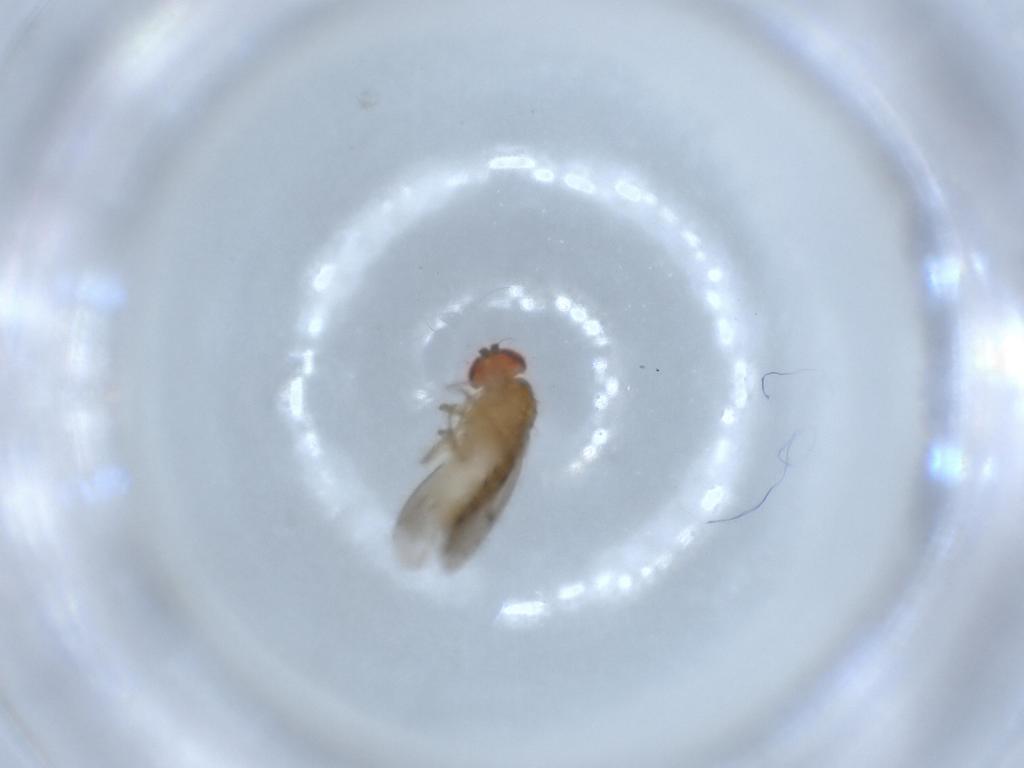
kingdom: Animalia
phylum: Arthropoda
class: Insecta
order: Diptera
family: Drosophilidae
